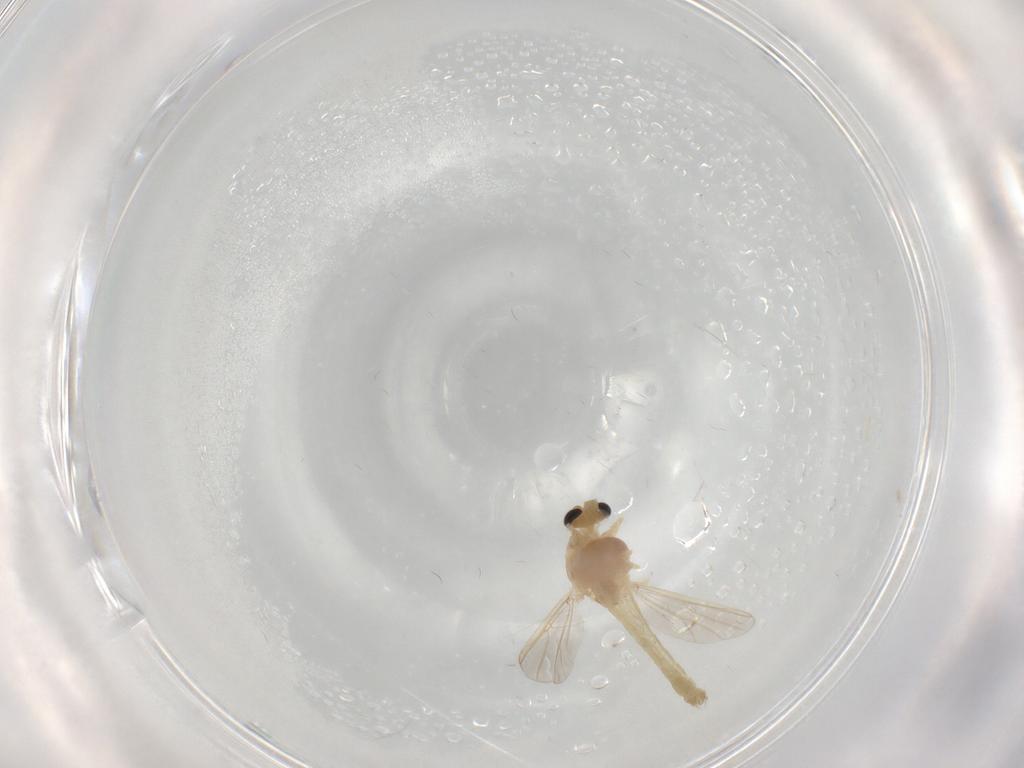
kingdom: Animalia
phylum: Arthropoda
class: Insecta
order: Diptera
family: Chironomidae
